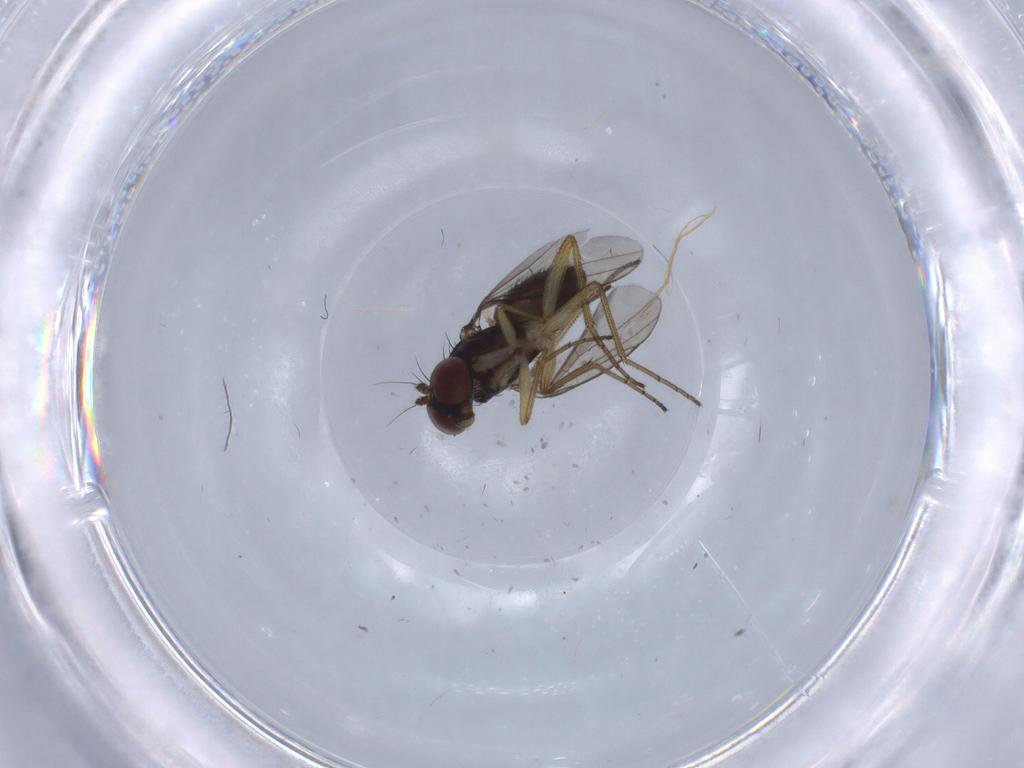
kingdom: Animalia
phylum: Arthropoda
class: Insecta
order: Diptera
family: Dolichopodidae
